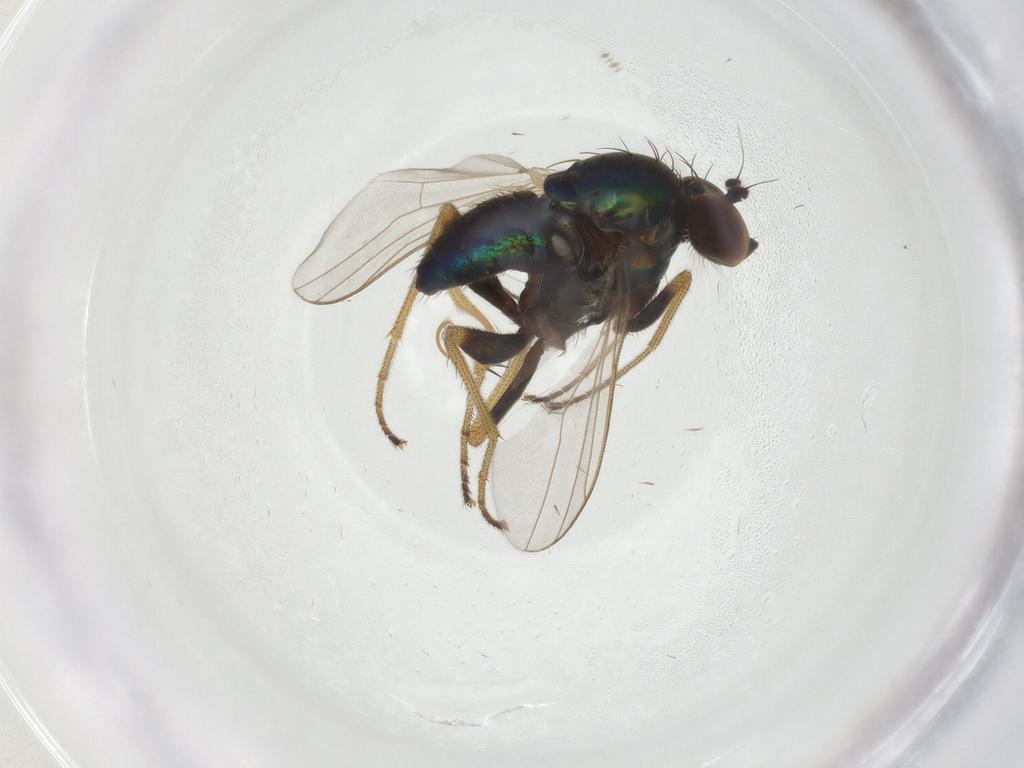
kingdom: Animalia
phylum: Arthropoda
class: Insecta
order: Diptera
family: Dolichopodidae
